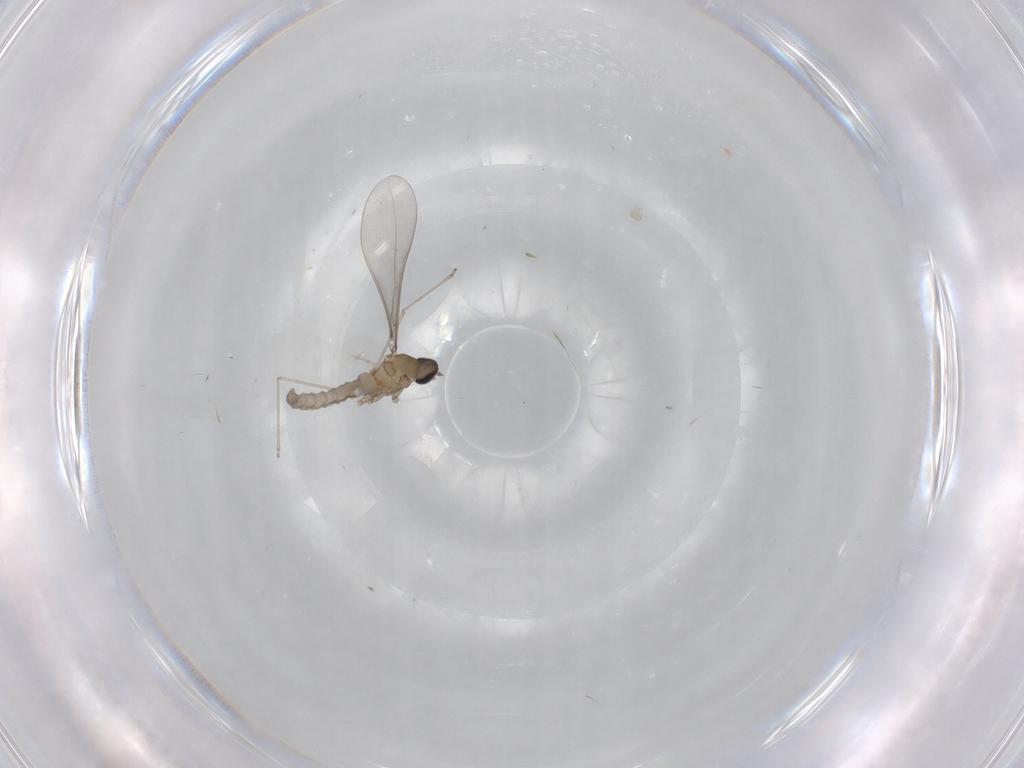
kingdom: Animalia
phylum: Arthropoda
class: Insecta
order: Diptera
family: Cecidomyiidae
